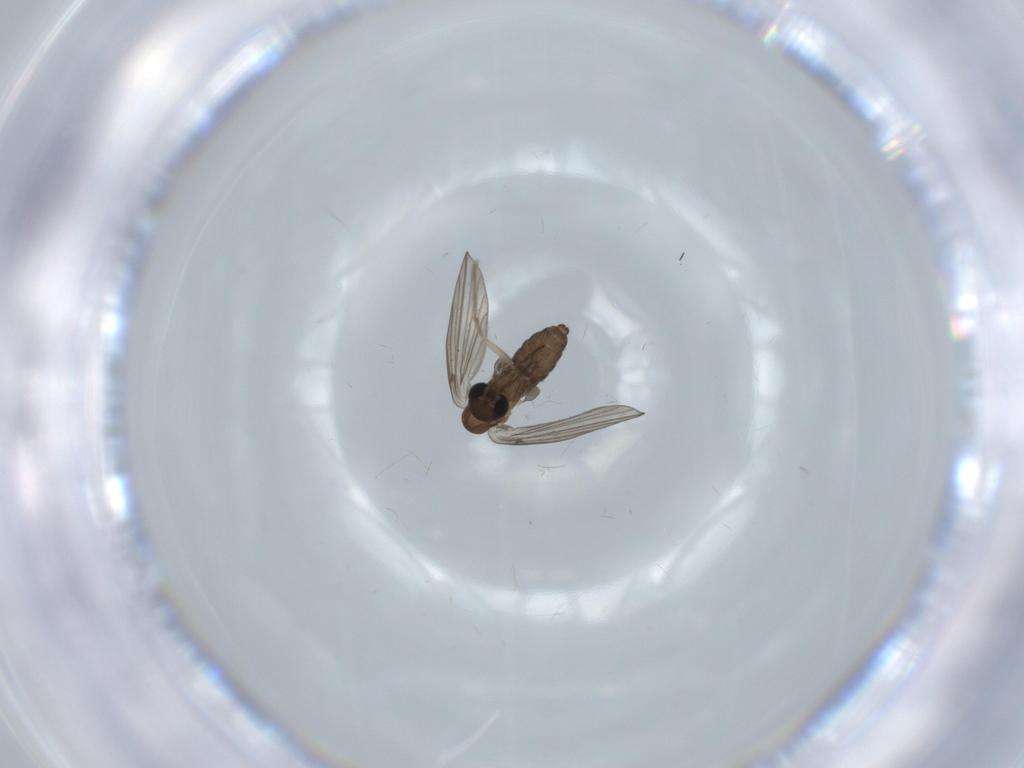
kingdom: Animalia
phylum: Arthropoda
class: Insecta
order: Diptera
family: Psychodidae
